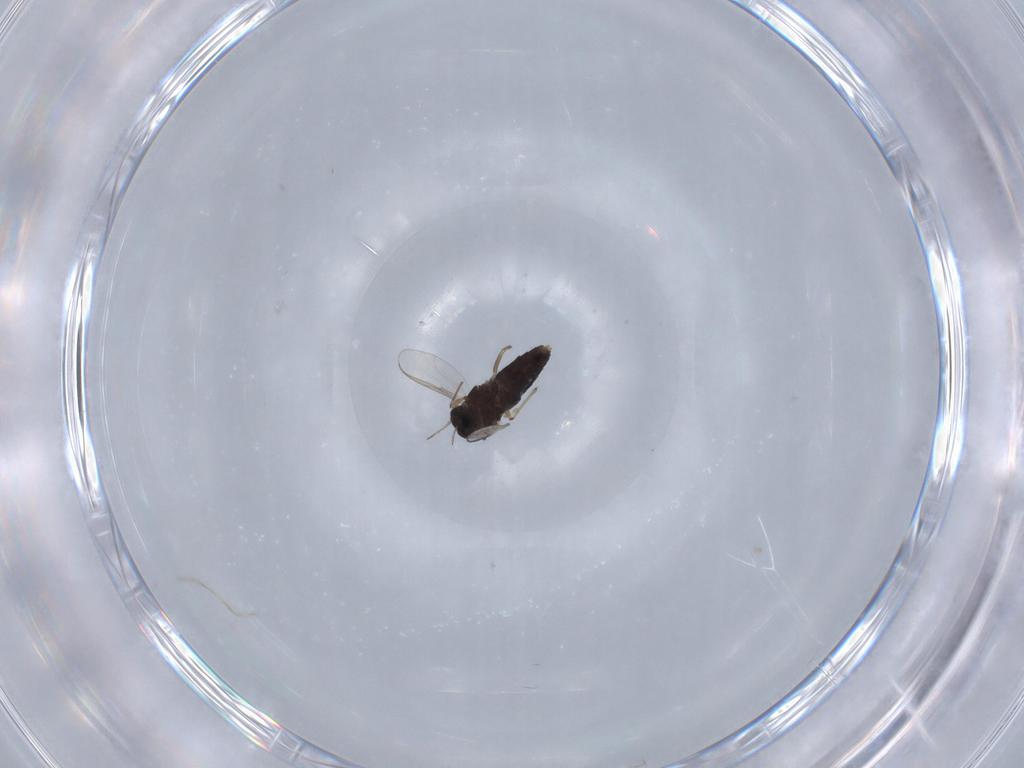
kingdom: Animalia
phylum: Arthropoda
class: Insecta
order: Diptera
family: Chironomidae
